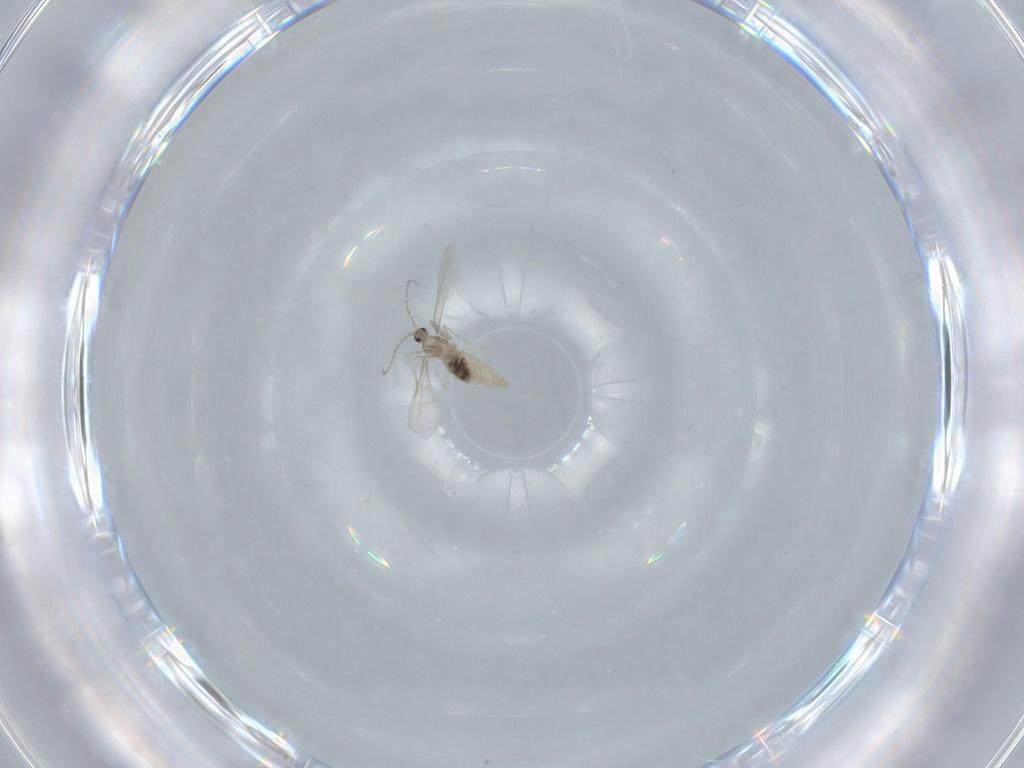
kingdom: Animalia
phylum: Arthropoda
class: Insecta
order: Diptera
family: Cecidomyiidae
